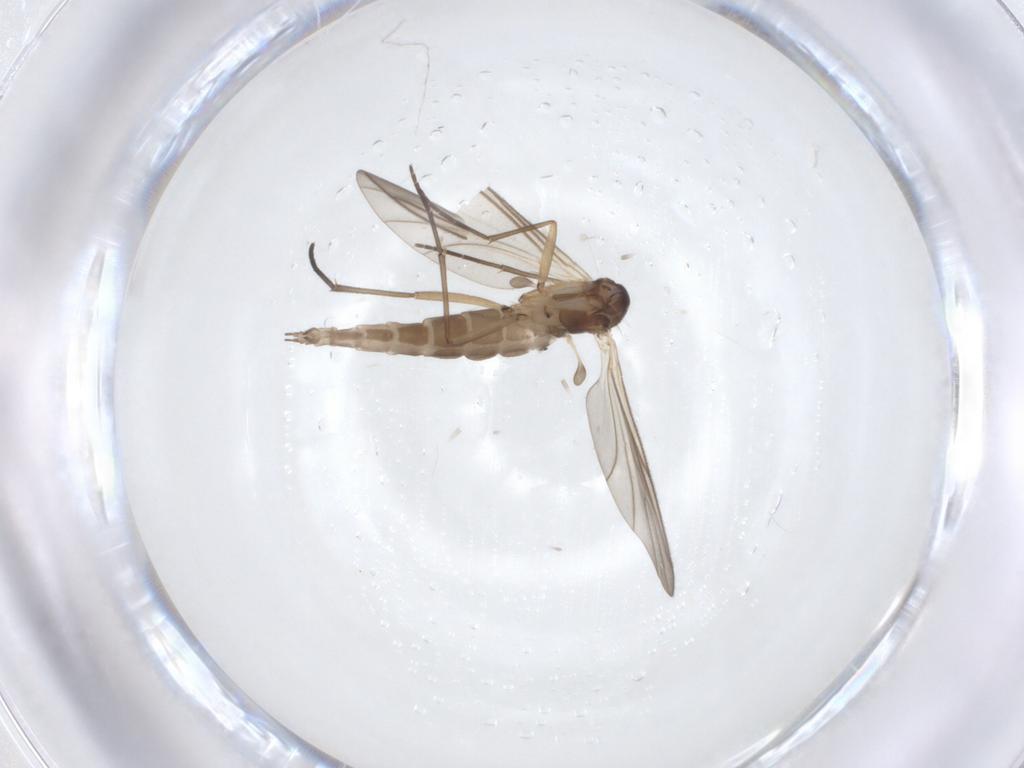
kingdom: Animalia
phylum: Arthropoda
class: Insecta
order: Diptera
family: Sciaridae
